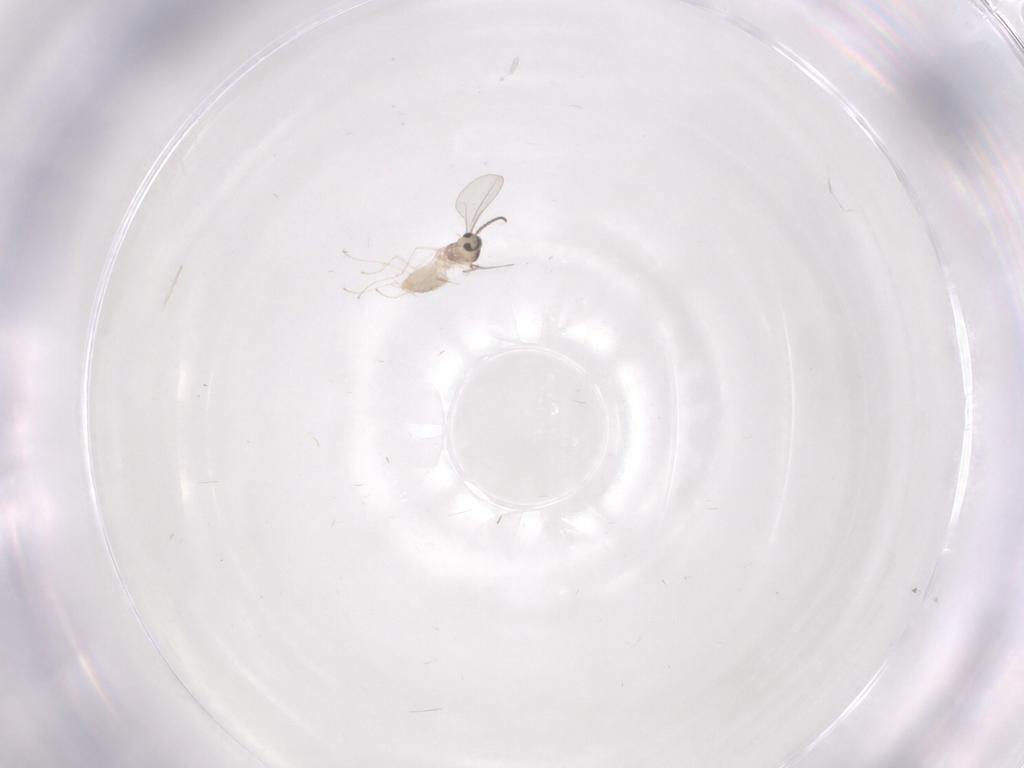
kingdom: Animalia
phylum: Arthropoda
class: Insecta
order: Diptera
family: Cecidomyiidae
